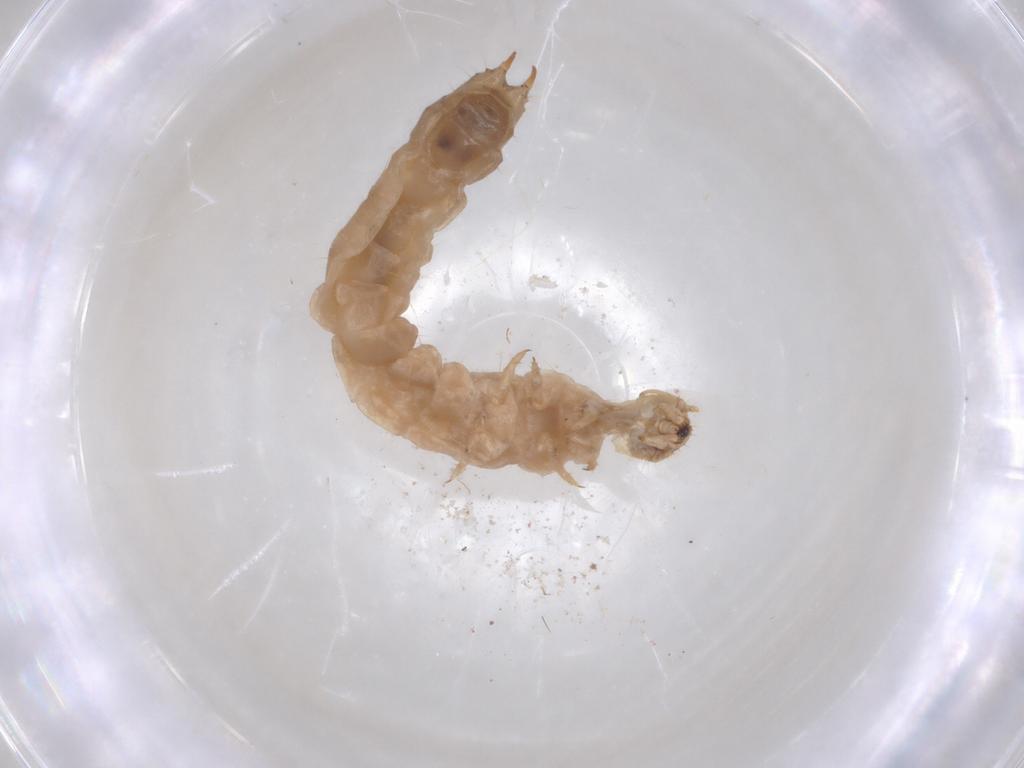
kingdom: Animalia
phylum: Arthropoda
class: Insecta
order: Coleoptera
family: Anthicidae
